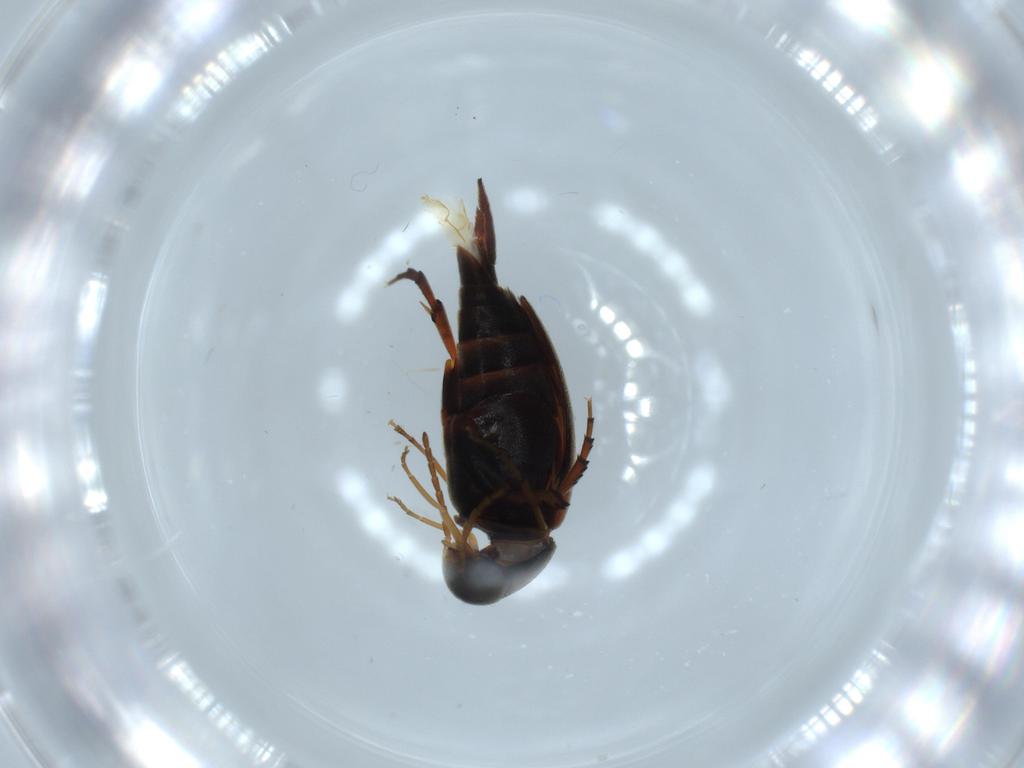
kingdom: Animalia
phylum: Arthropoda
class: Insecta
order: Coleoptera
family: Mordellidae
